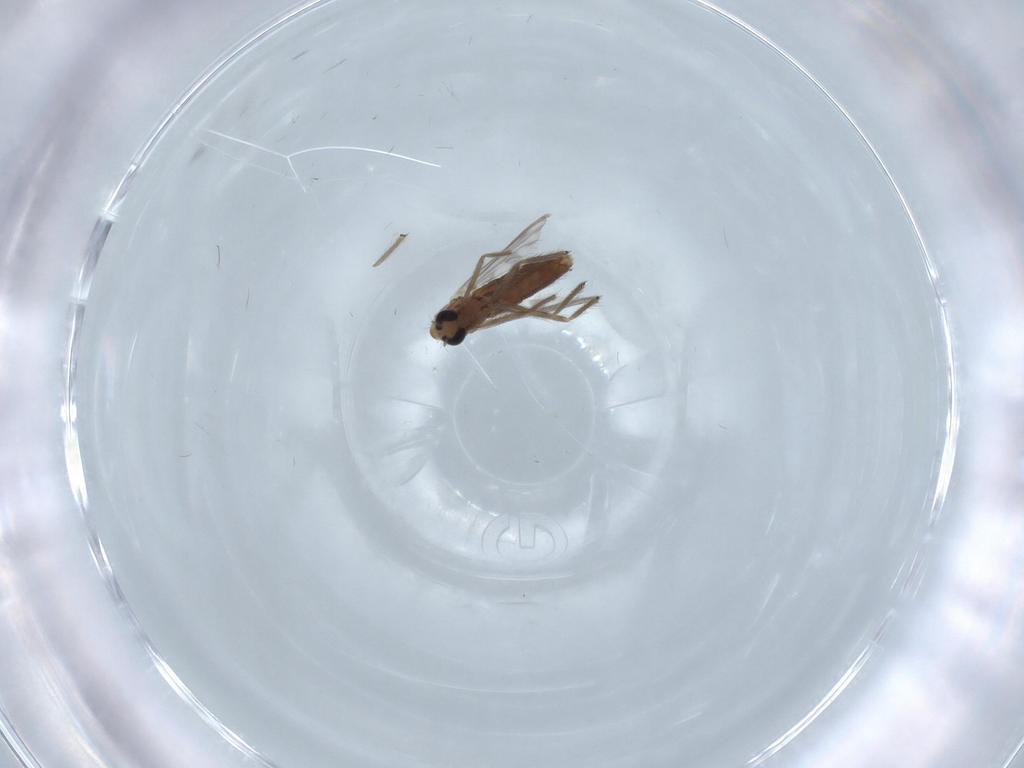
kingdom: Animalia
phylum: Arthropoda
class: Insecta
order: Diptera
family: Chironomidae
